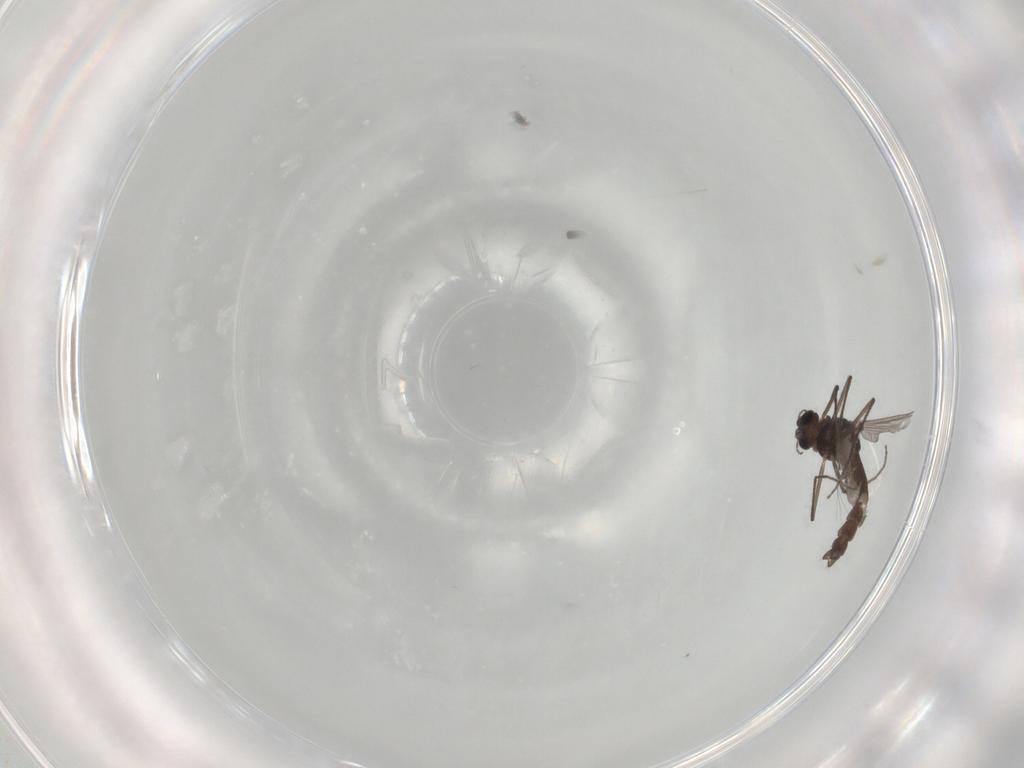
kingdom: Animalia
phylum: Arthropoda
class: Insecta
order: Diptera
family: Chironomidae
